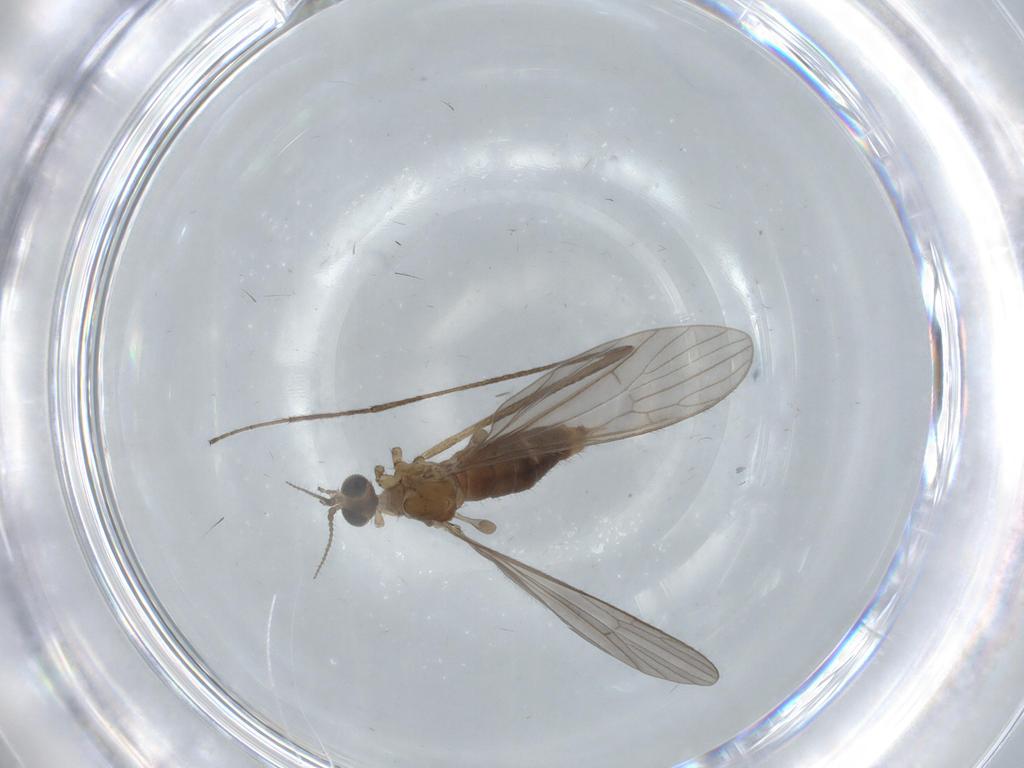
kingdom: Animalia
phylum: Arthropoda
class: Insecta
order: Diptera
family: Limoniidae
